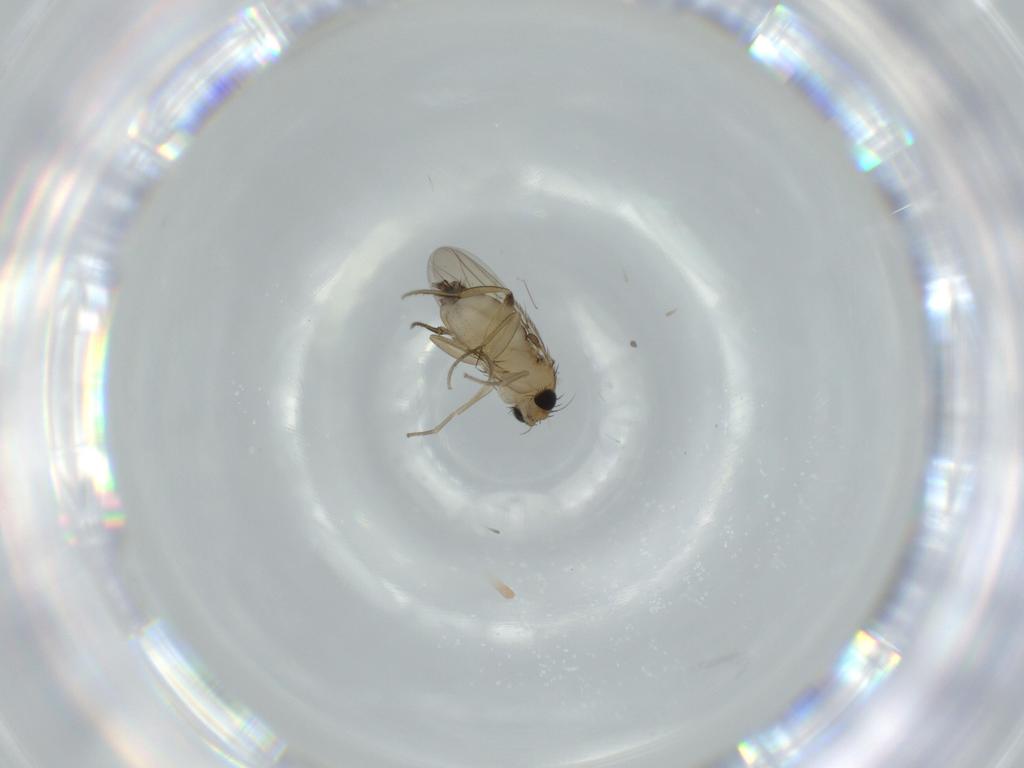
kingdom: Animalia
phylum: Arthropoda
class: Insecta
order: Diptera
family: Phoridae
